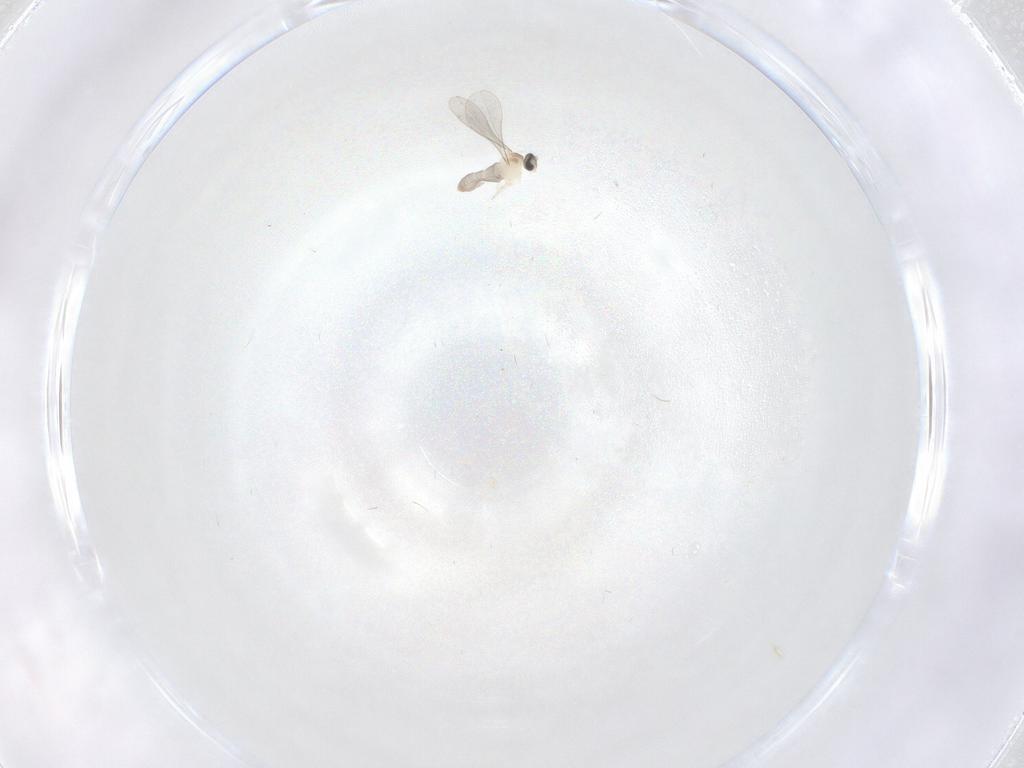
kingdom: Animalia
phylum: Arthropoda
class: Insecta
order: Diptera
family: Cecidomyiidae
